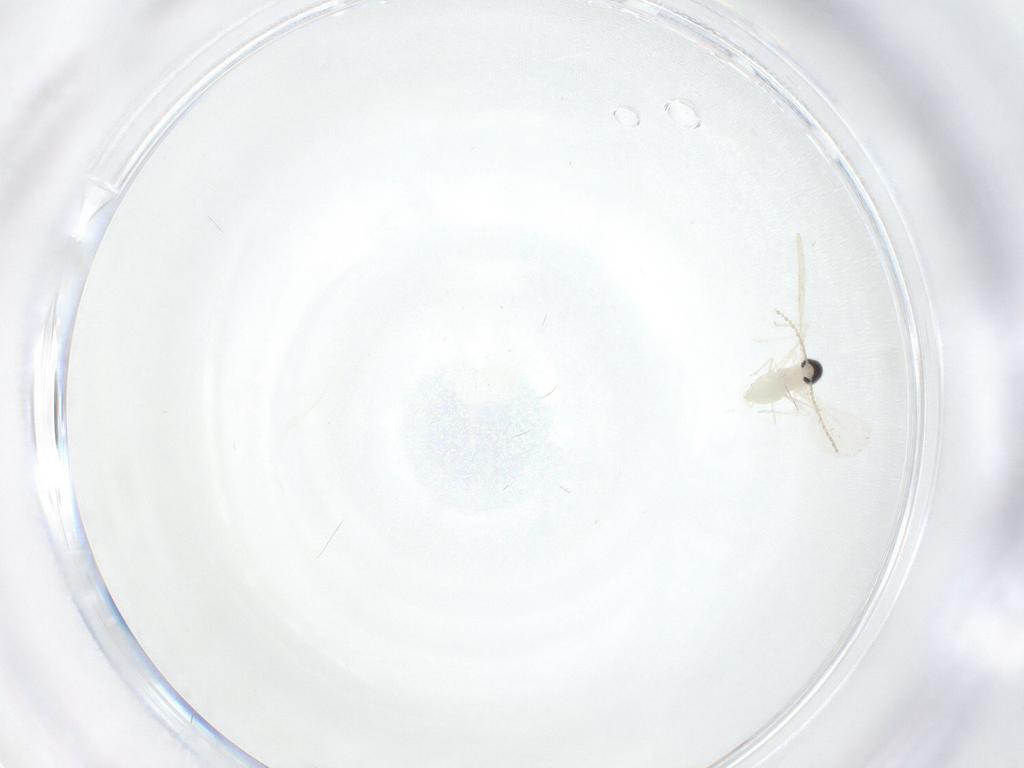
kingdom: Animalia
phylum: Arthropoda
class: Insecta
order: Diptera
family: Cecidomyiidae
